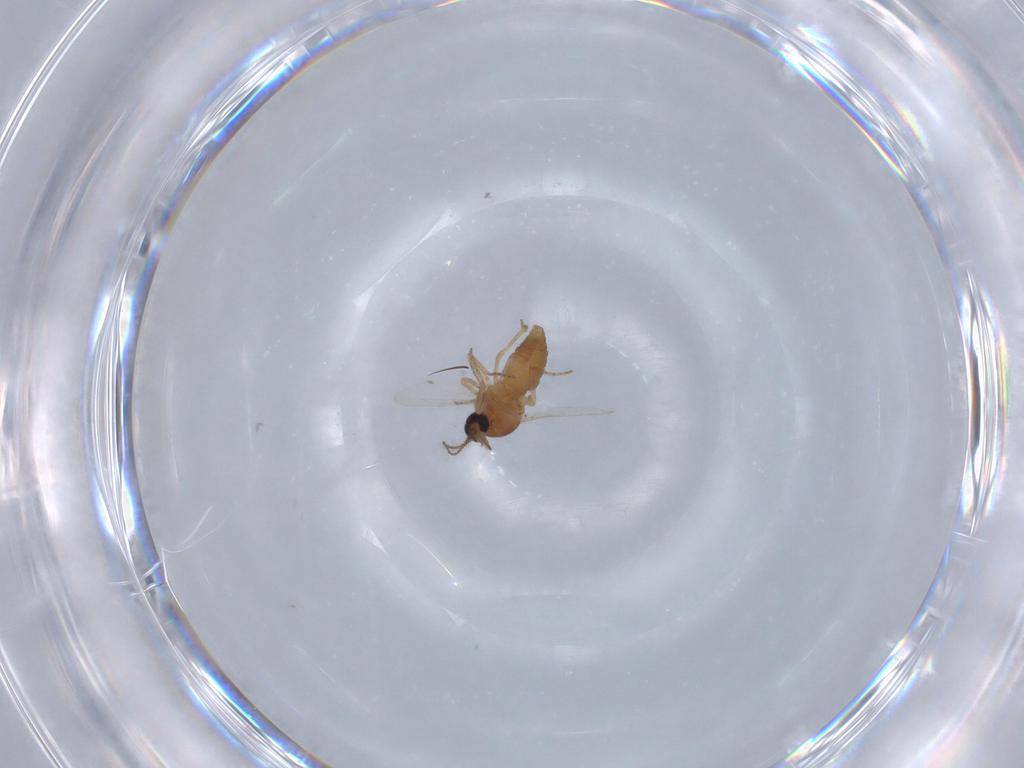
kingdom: Animalia
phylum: Arthropoda
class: Insecta
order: Diptera
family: Ceratopogonidae
